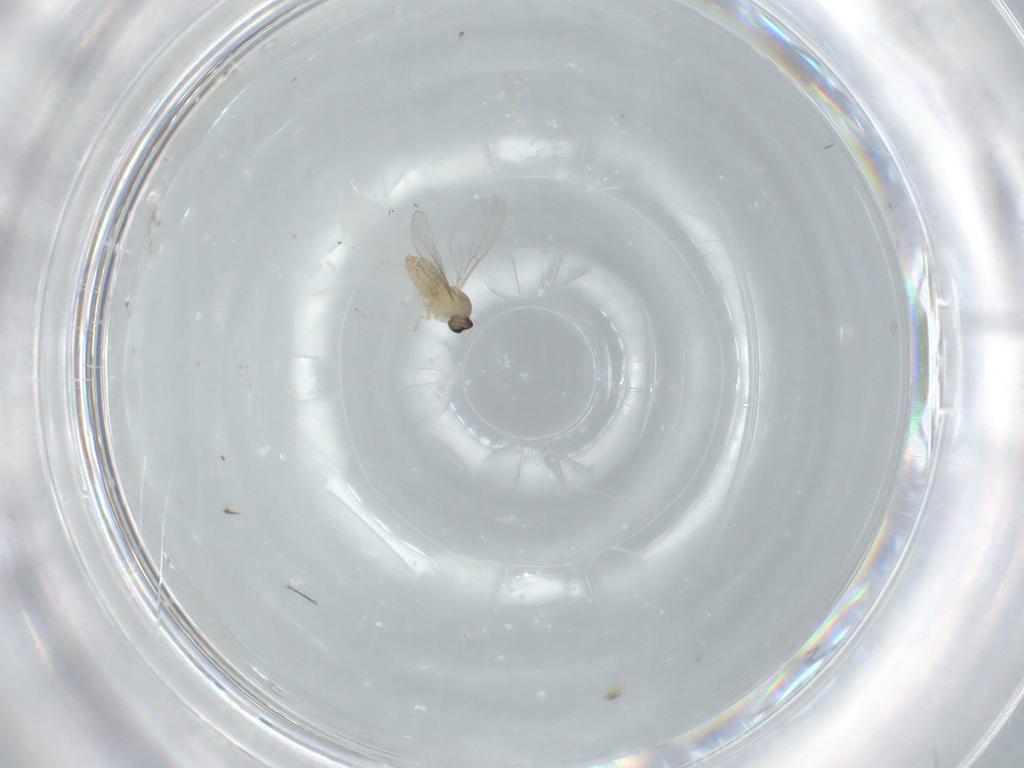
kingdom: Animalia
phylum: Arthropoda
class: Insecta
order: Diptera
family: Cecidomyiidae
